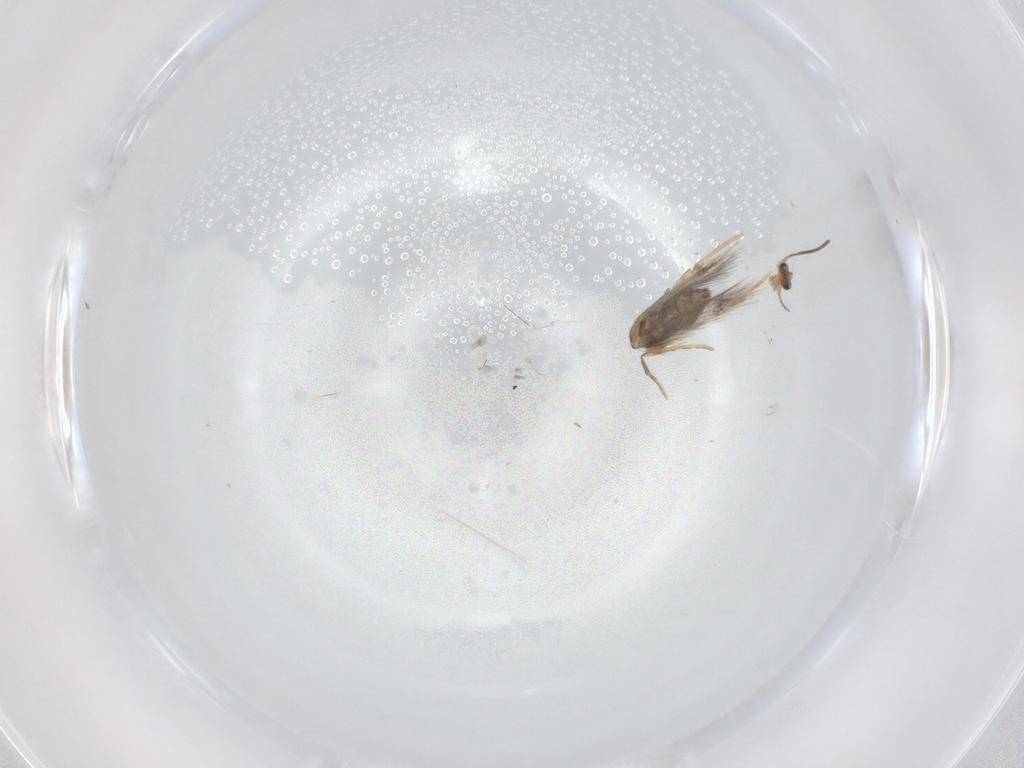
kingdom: Animalia
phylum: Arthropoda
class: Insecta
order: Lepidoptera
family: Nepticulidae
